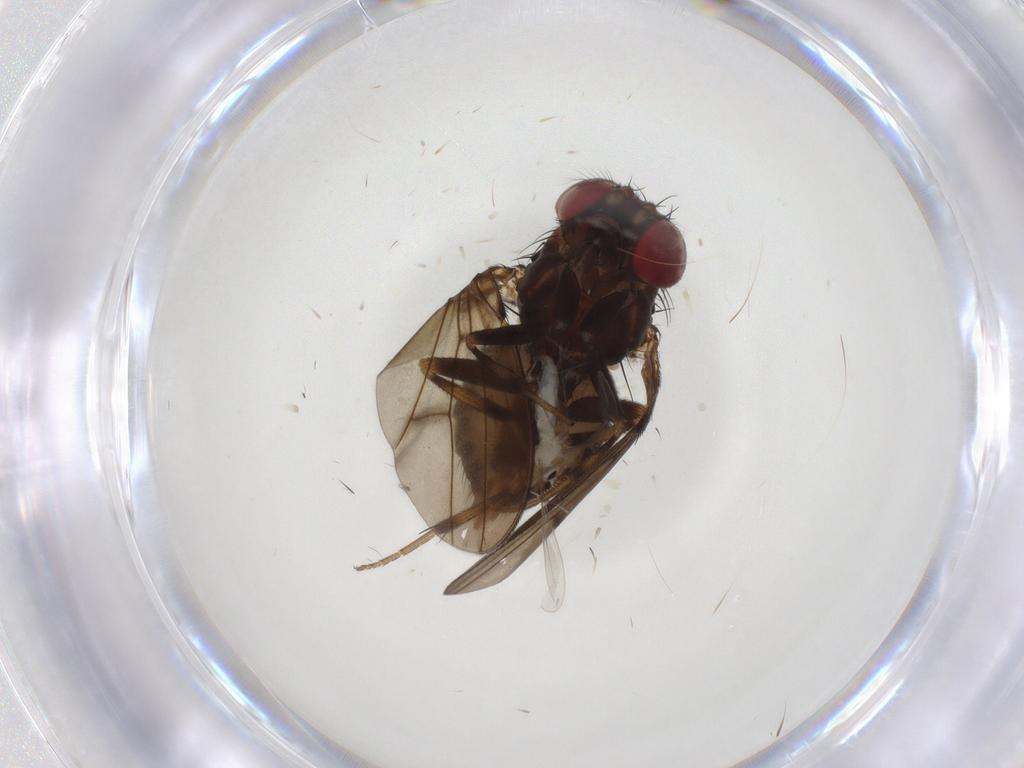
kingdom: Animalia
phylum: Arthropoda
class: Insecta
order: Diptera
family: Drosophilidae
